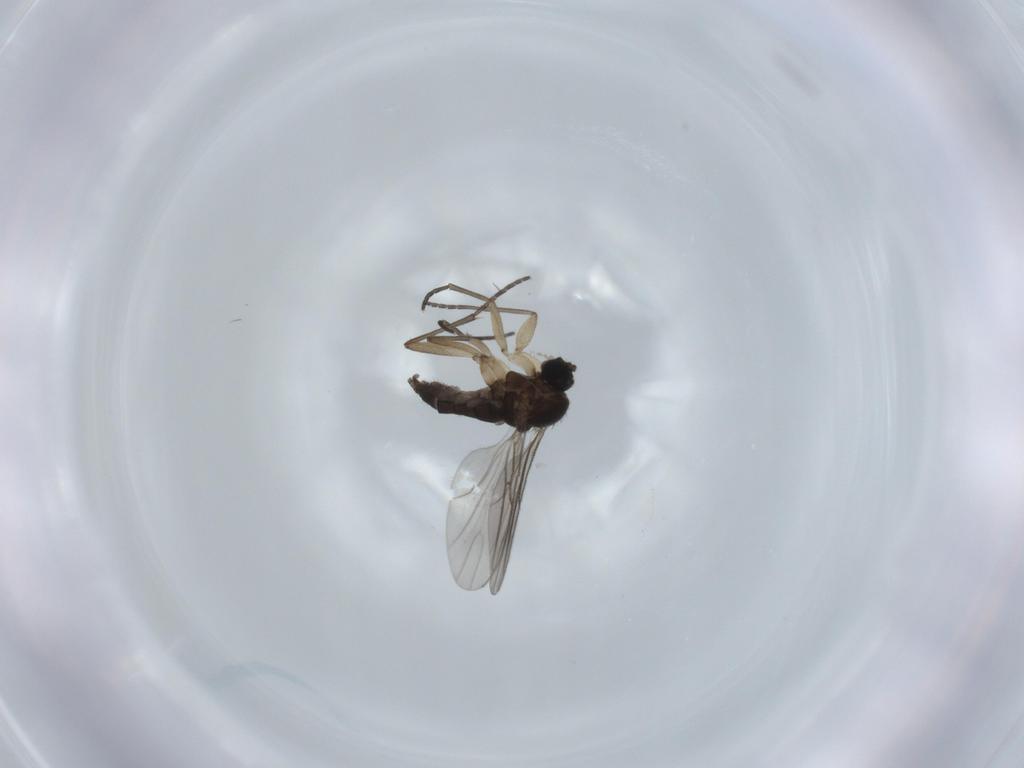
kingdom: Animalia
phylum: Arthropoda
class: Insecta
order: Diptera
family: Sciaridae
